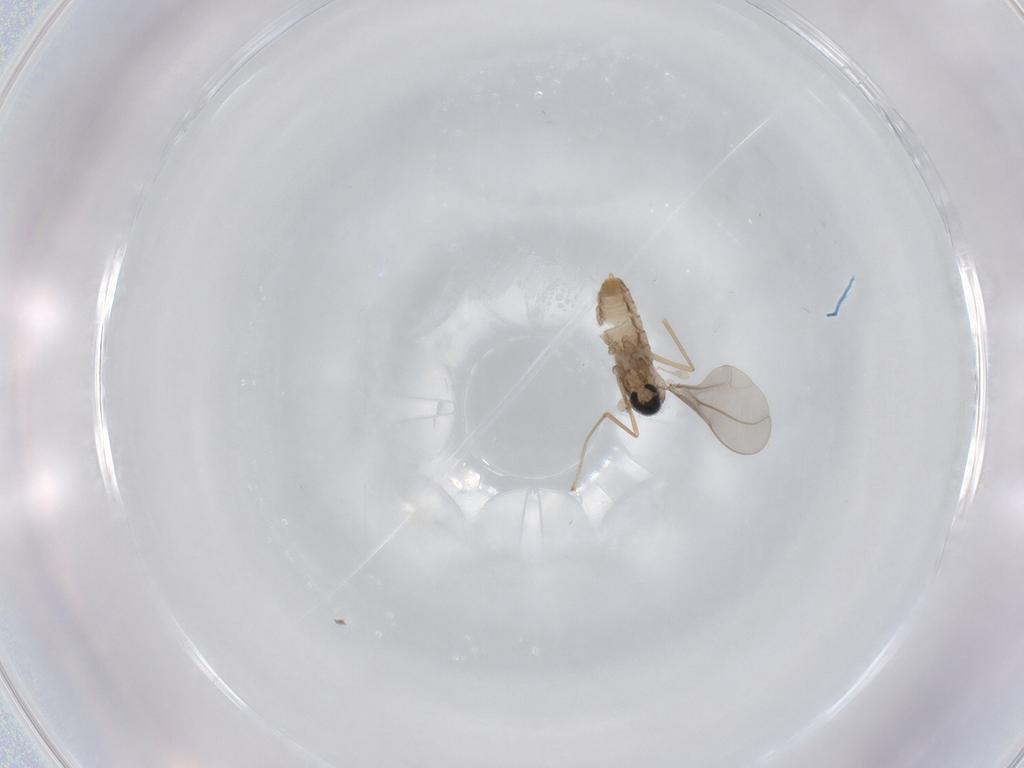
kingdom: Animalia
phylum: Arthropoda
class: Insecta
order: Diptera
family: Cecidomyiidae
